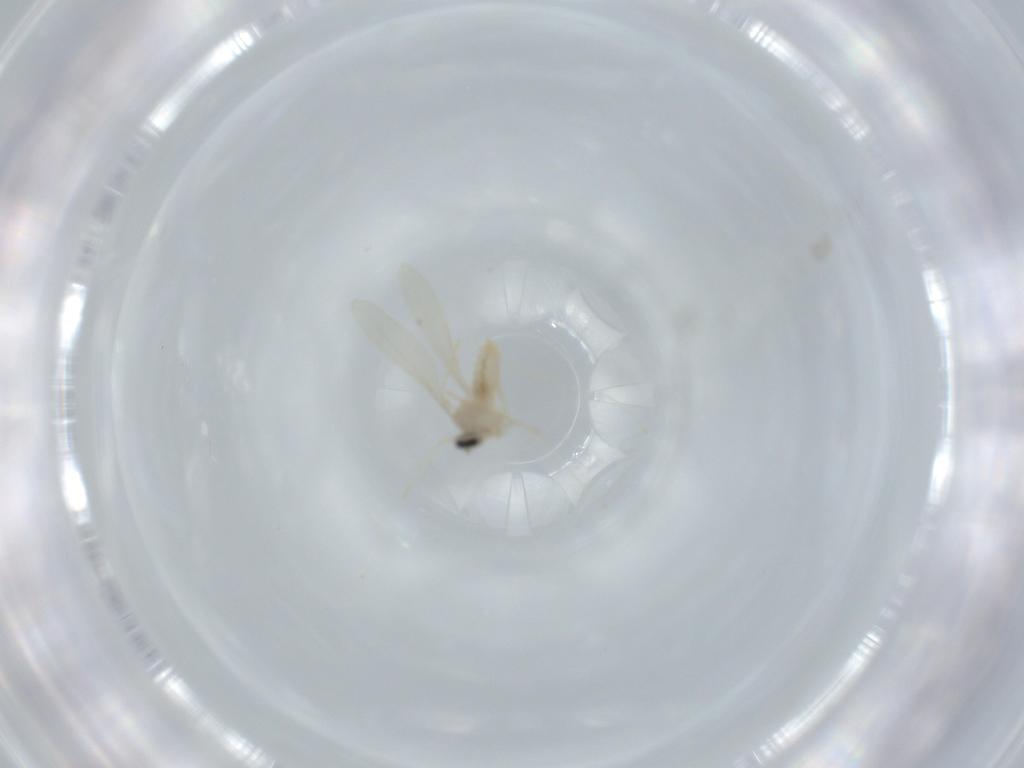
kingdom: Animalia
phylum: Arthropoda
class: Insecta
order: Diptera
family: Cecidomyiidae
